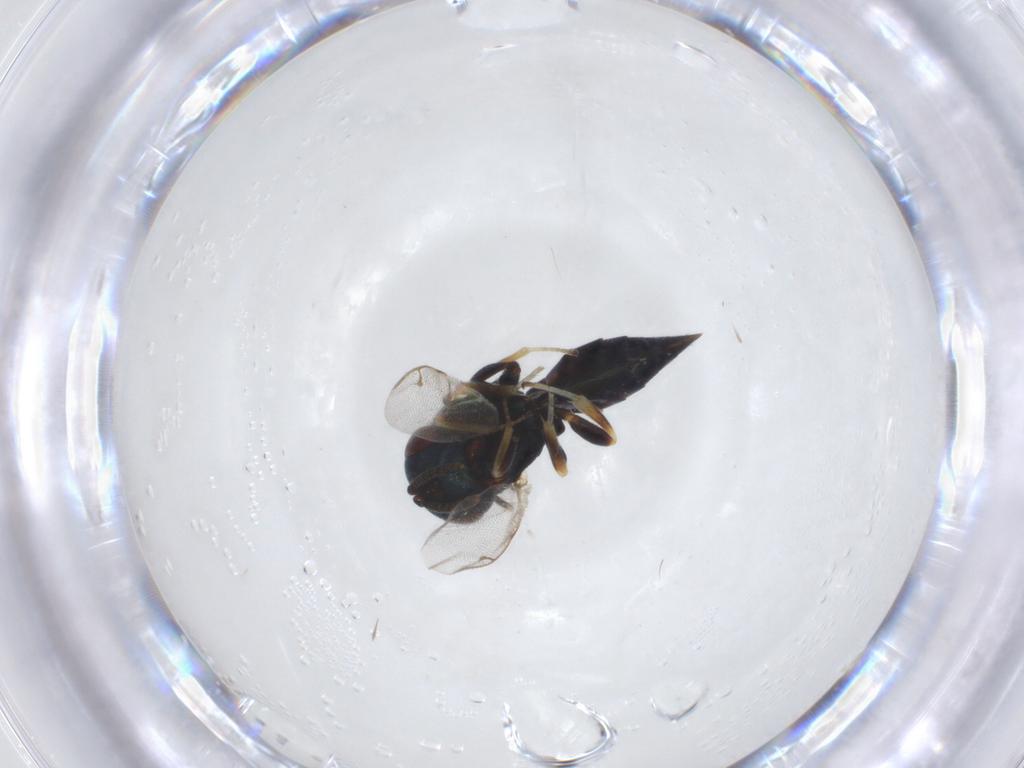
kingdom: Animalia
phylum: Arthropoda
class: Insecta
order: Hymenoptera
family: Pteromalidae
